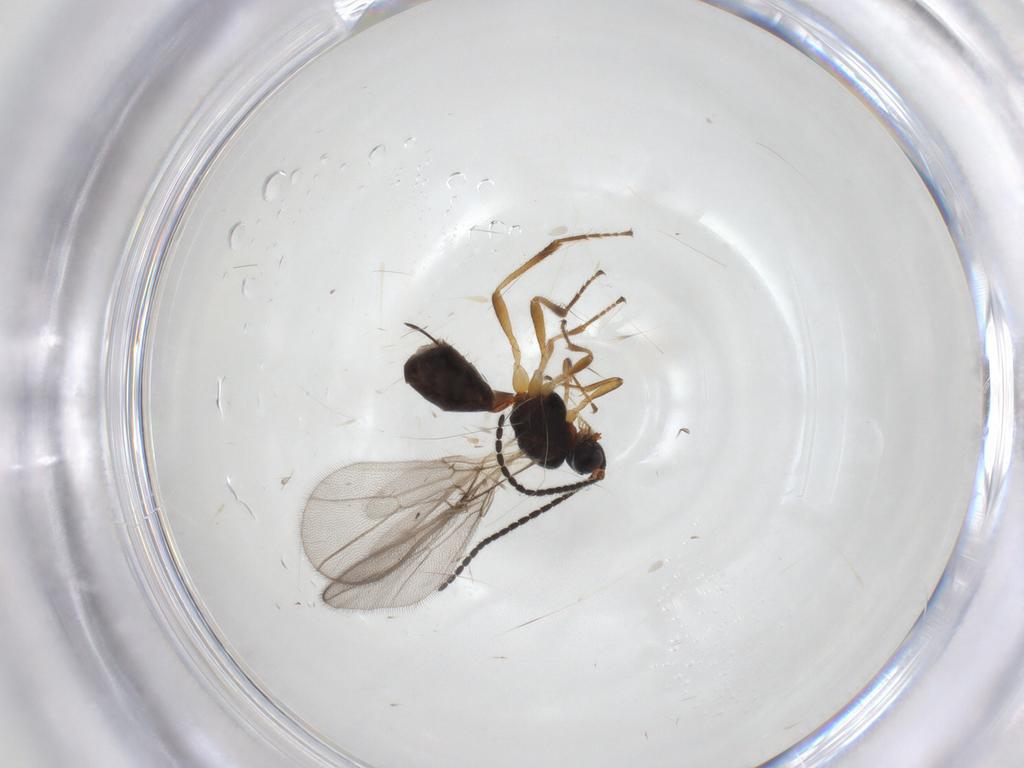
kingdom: Animalia
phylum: Arthropoda
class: Insecta
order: Hymenoptera
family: Braconidae
